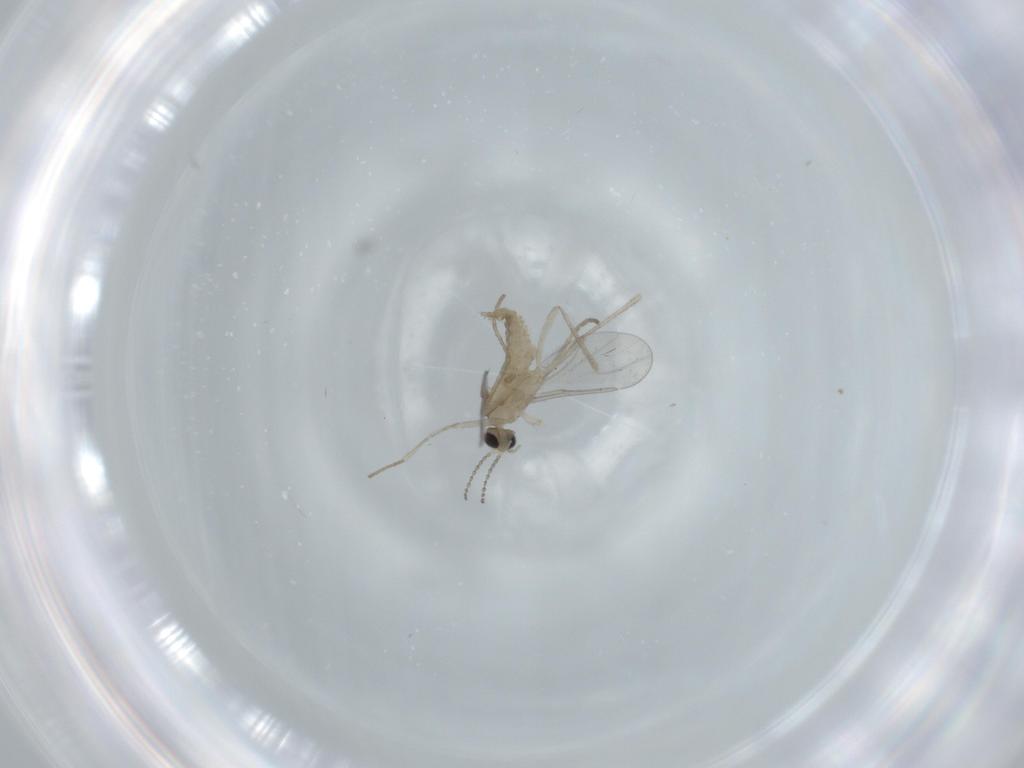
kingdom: Animalia
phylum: Arthropoda
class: Insecta
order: Diptera
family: Cecidomyiidae
